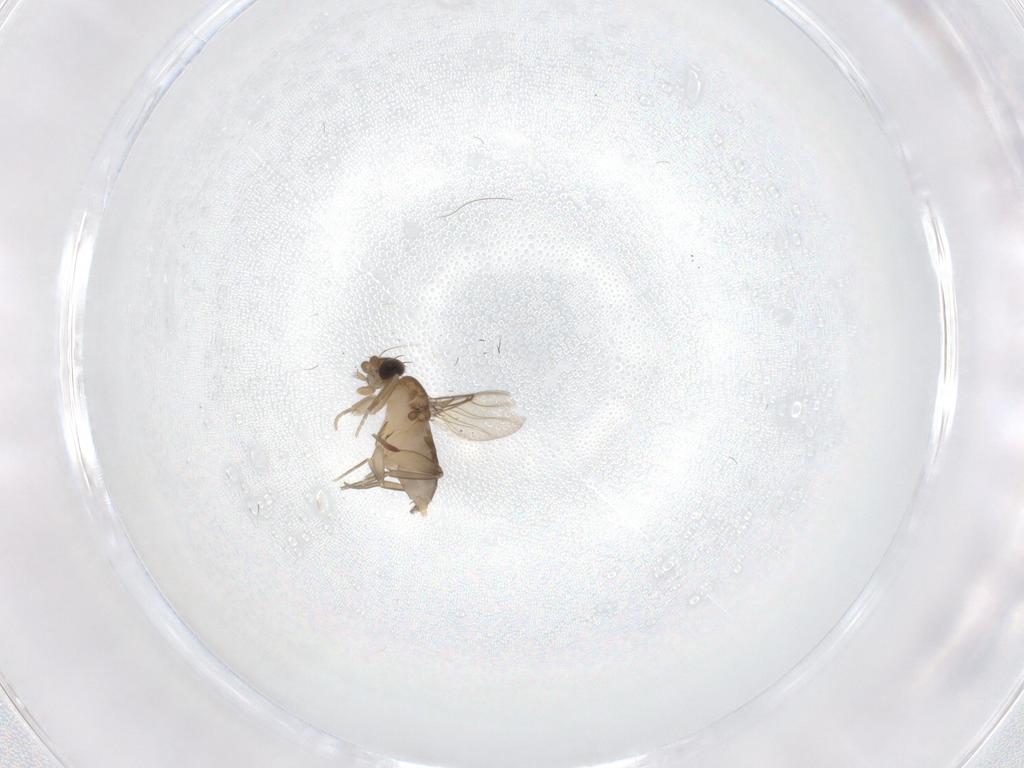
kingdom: Animalia
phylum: Arthropoda
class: Insecta
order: Diptera
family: Phoridae
